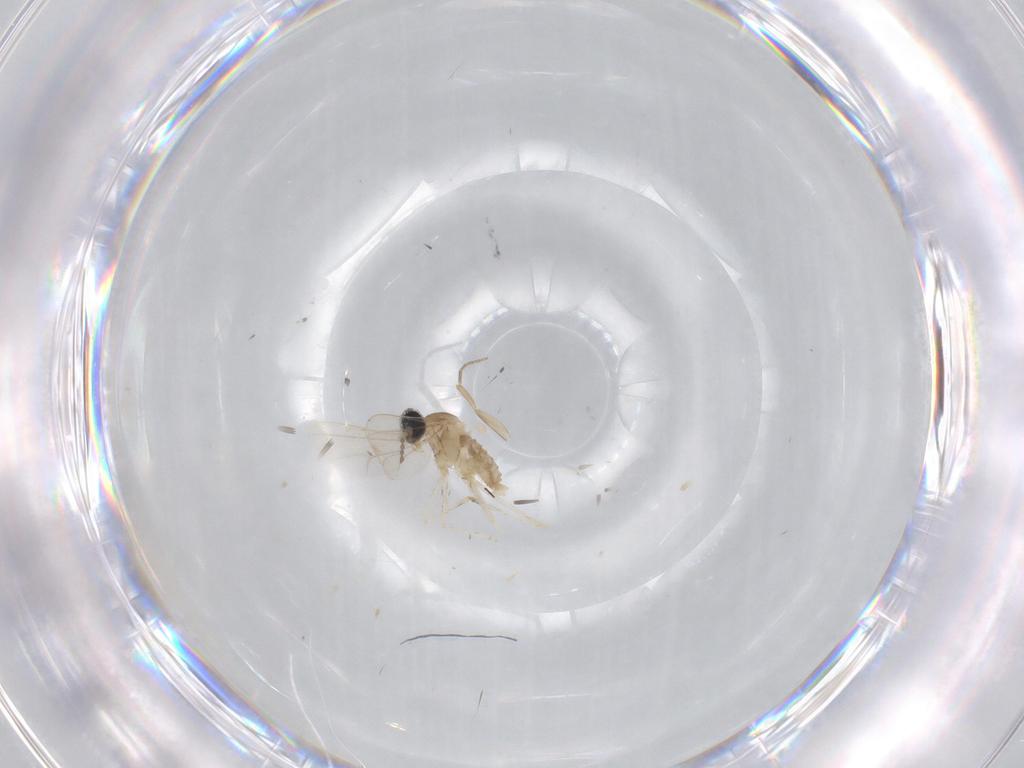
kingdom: Animalia
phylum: Arthropoda
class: Insecta
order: Diptera
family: Cecidomyiidae
